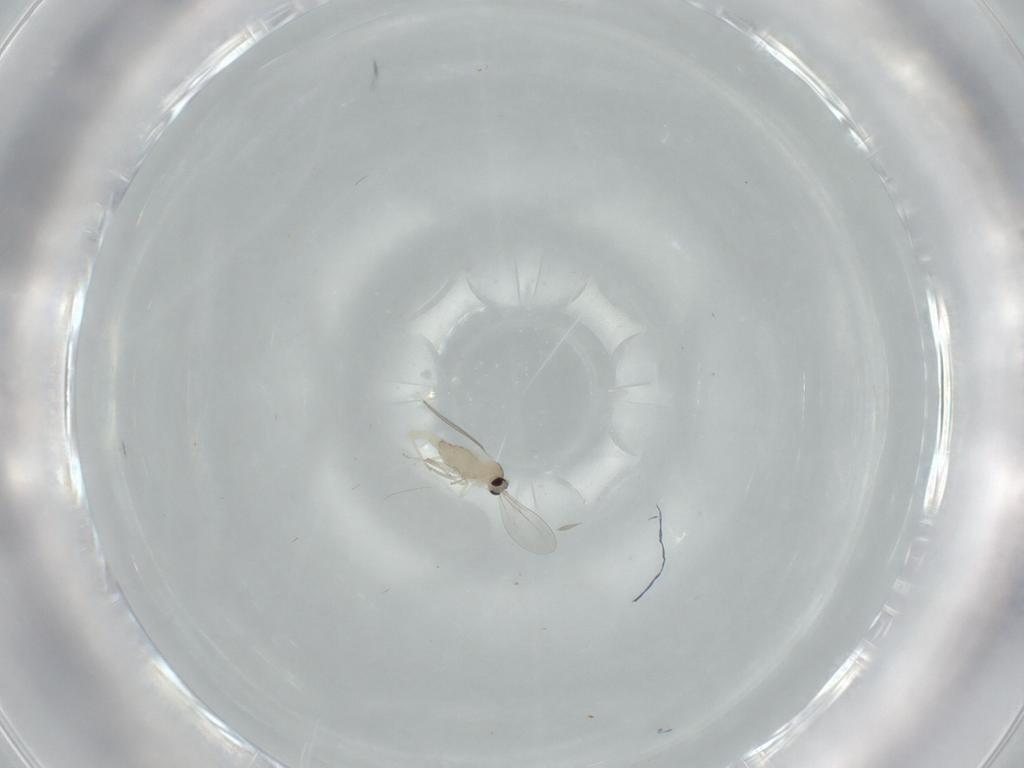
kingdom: Animalia
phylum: Arthropoda
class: Insecta
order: Diptera
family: Cecidomyiidae
